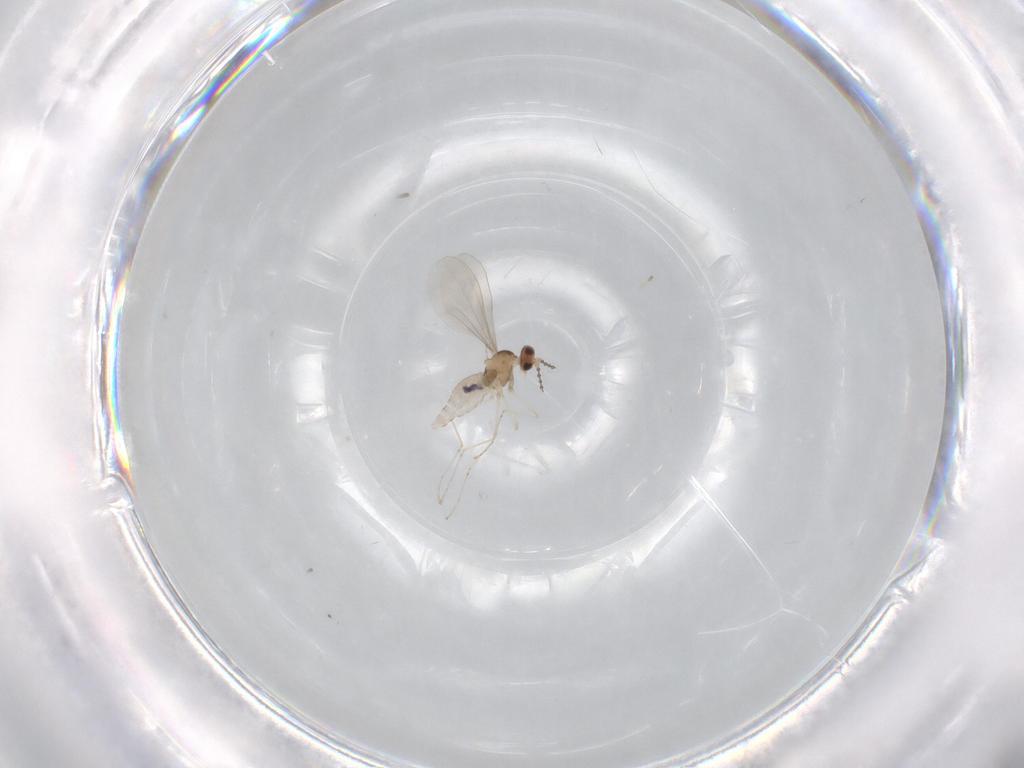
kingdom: Animalia
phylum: Arthropoda
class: Insecta
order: Diptera
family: Cecidomyiidae
